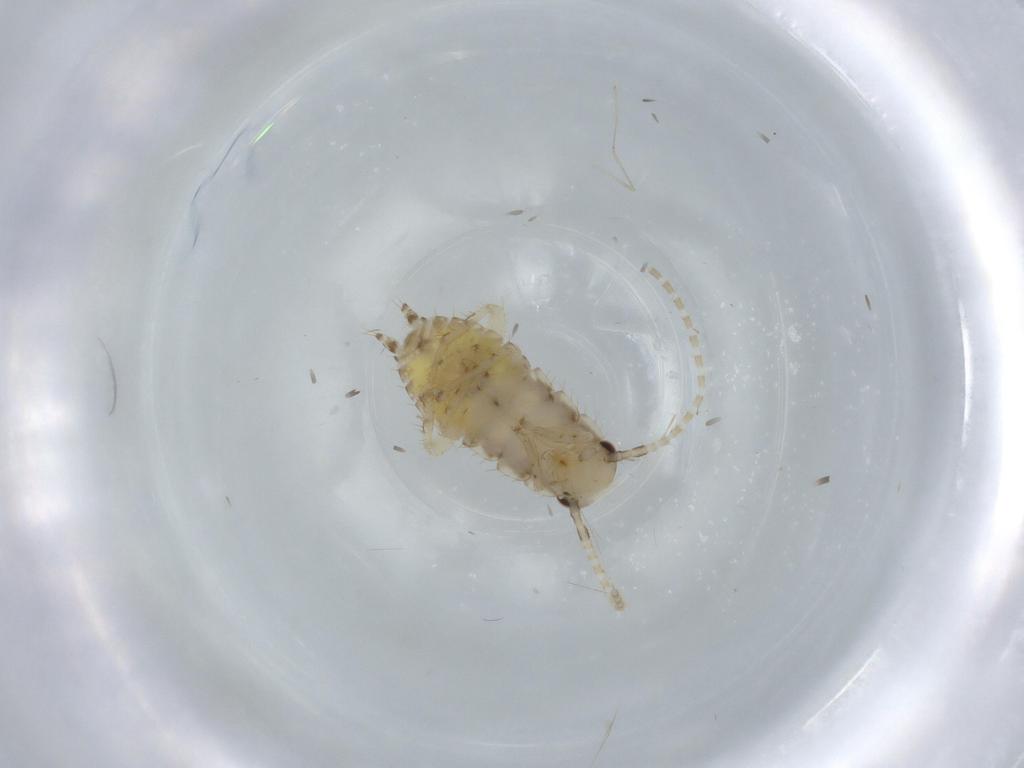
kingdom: Animalia
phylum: Arthropoda
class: Insecta
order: Blattodea
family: Ectobiidae
